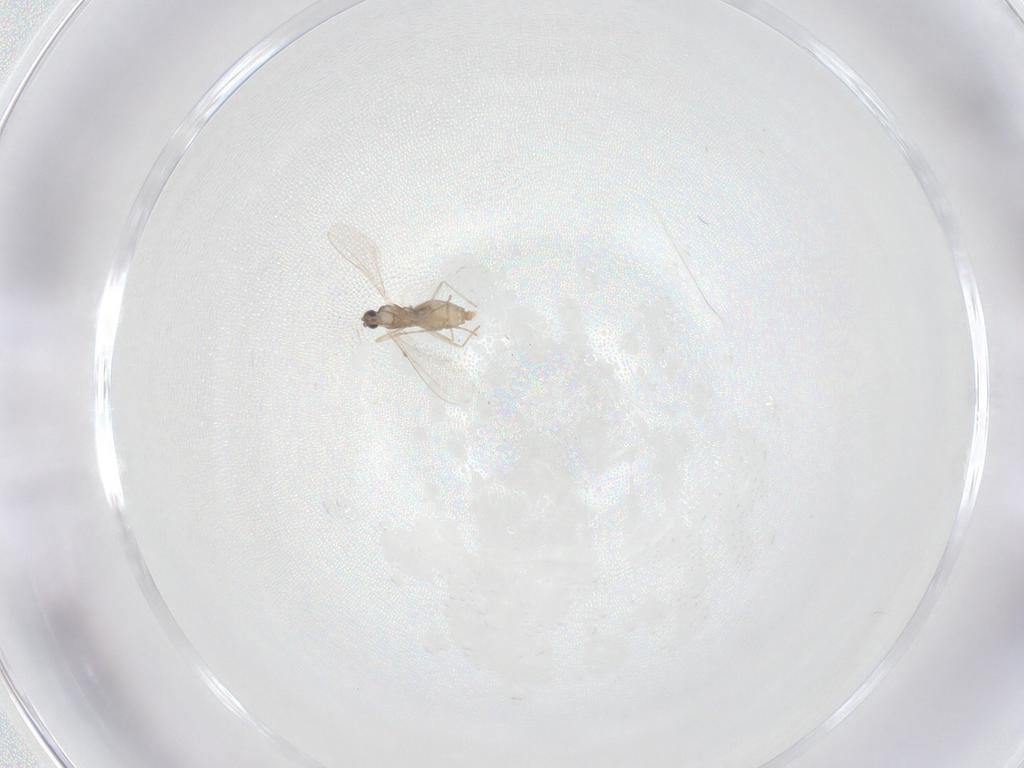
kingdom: Animalia
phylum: Arthropoda
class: Insecta
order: Diptera
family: Cecidomyiidae
